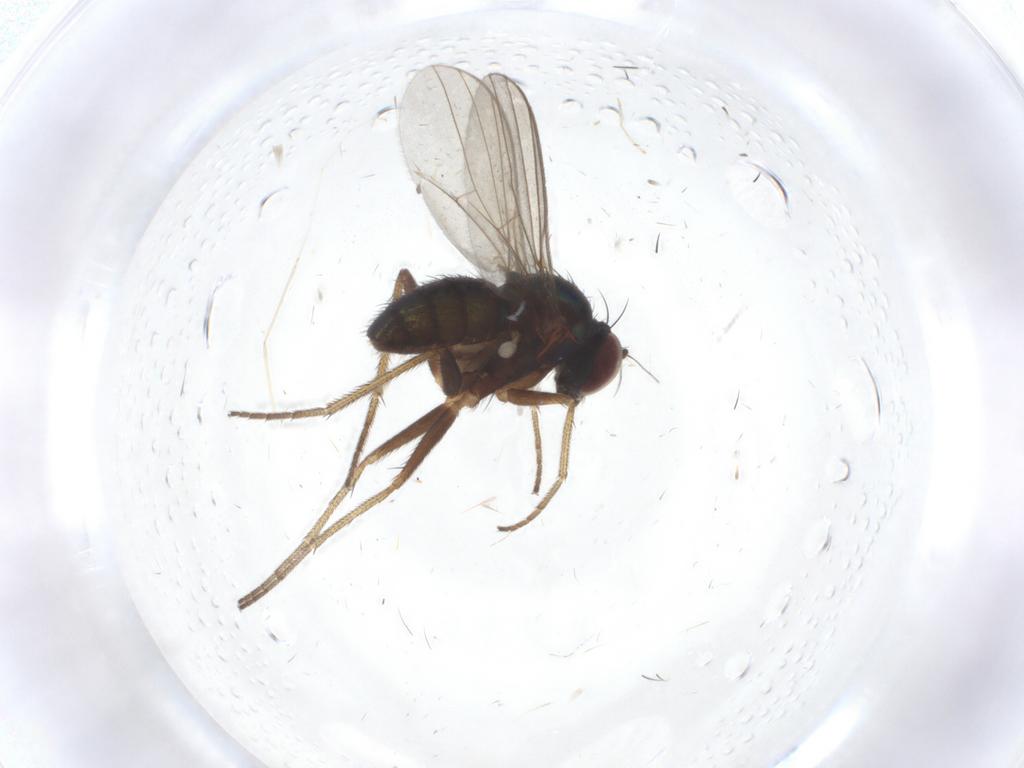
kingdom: Animalia
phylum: Arthropoda
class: Insecta
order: Diptera
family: Sciaridae
